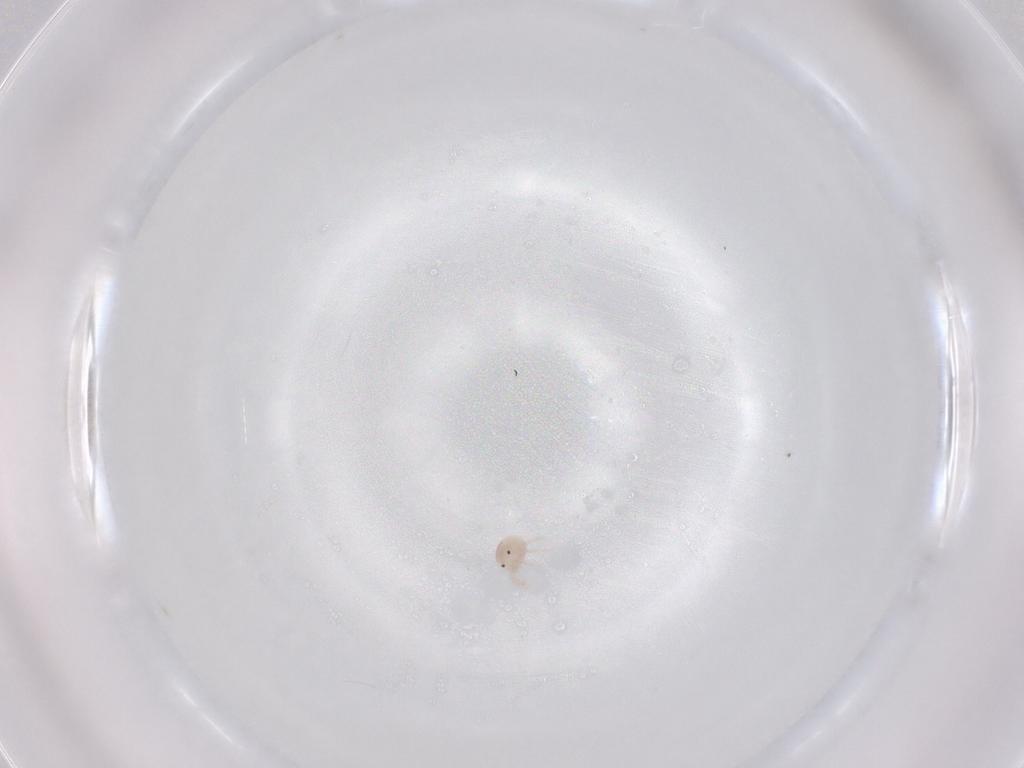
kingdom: Animalia
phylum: Arthropoda
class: Arachnida
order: Trombidiformes
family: Lebertiidae
